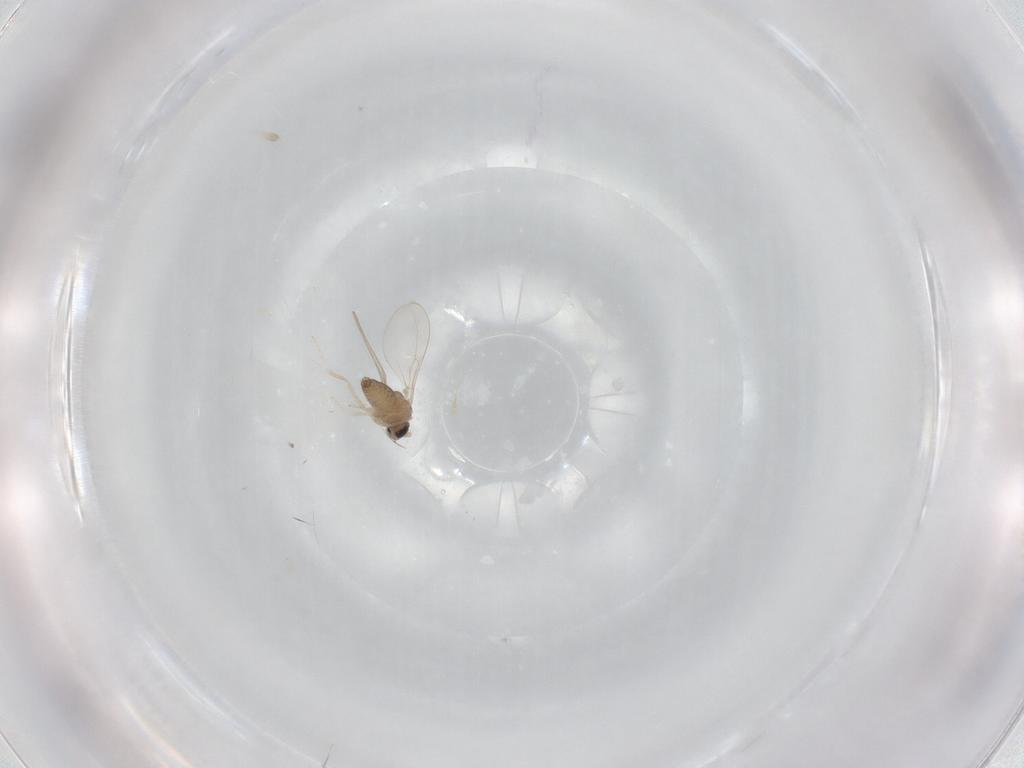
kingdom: Animalia
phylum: Arthropoda
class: Insecta
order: Diptera
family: Cecidomyiidae
